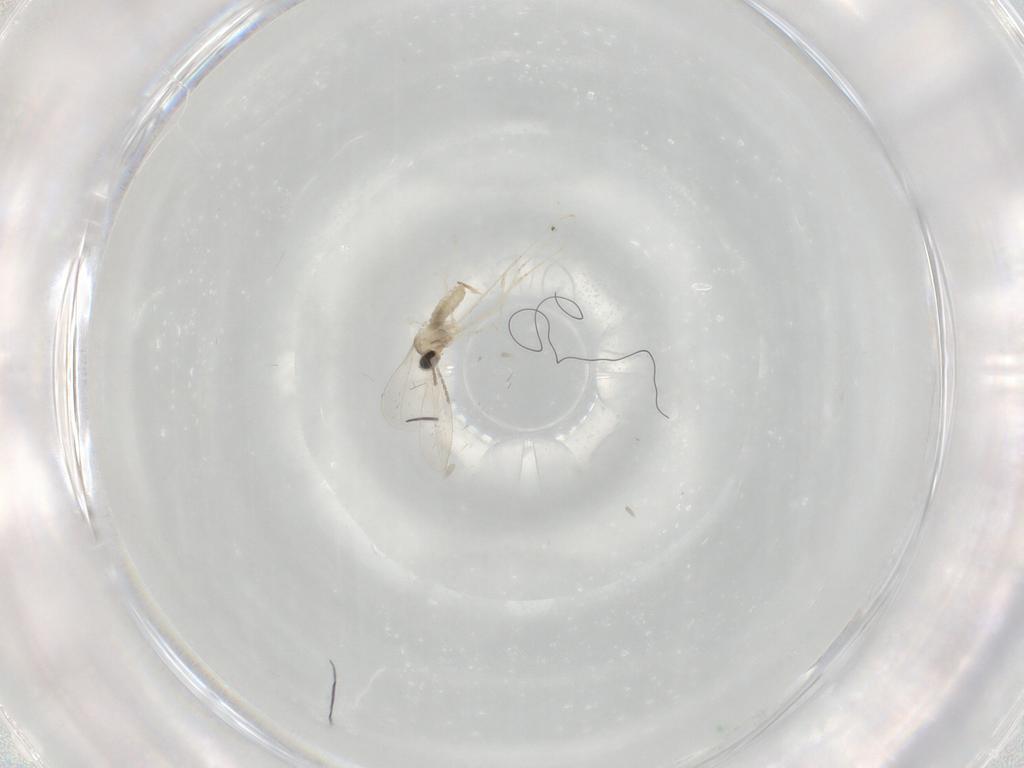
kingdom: Animalia
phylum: Arthropoda
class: Insecta
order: Diptera
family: Cecidomyiidae
